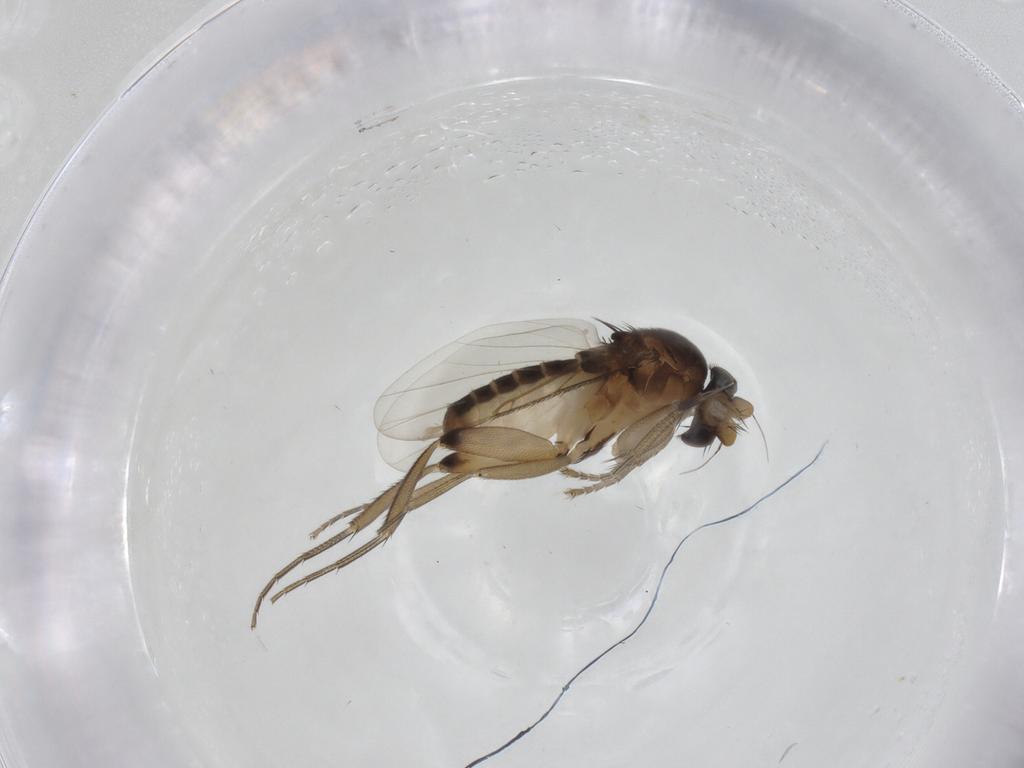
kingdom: Animalia
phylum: Arthropoda
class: Insecta
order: Diptera
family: Phoridae
